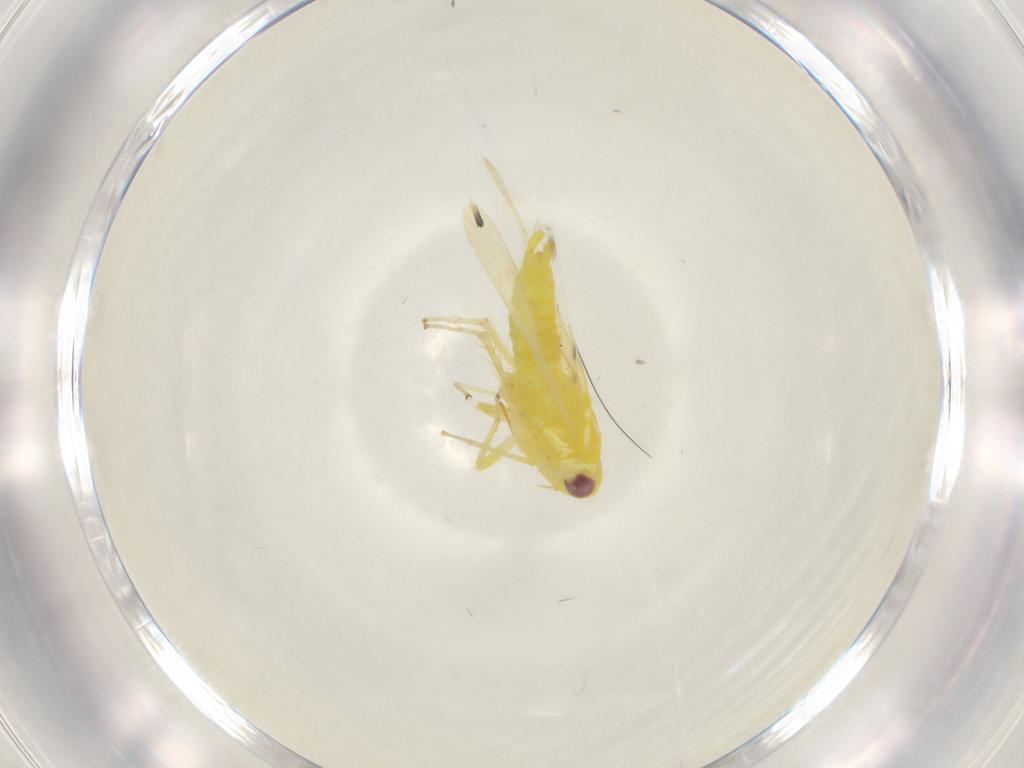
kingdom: Animalia
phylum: Arthropoda
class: Insecta
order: Hemiptera
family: Cicadellidae
